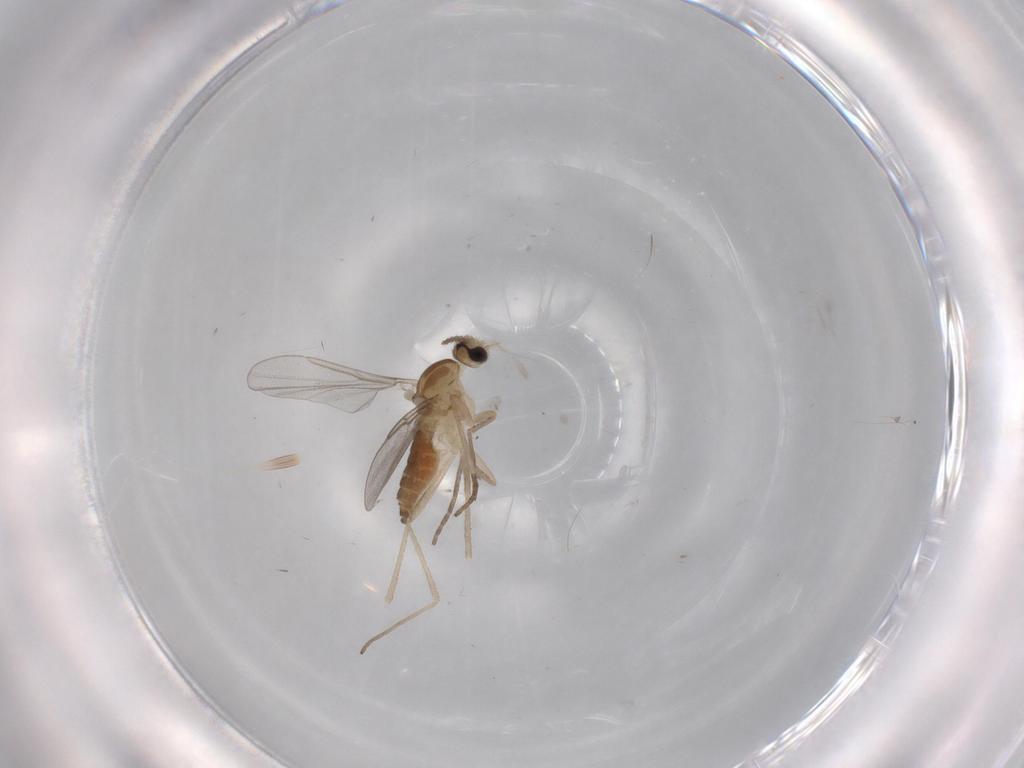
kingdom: Animalia
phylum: Arthropoda
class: Insecta
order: Diptera
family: Cecidomyiidae
